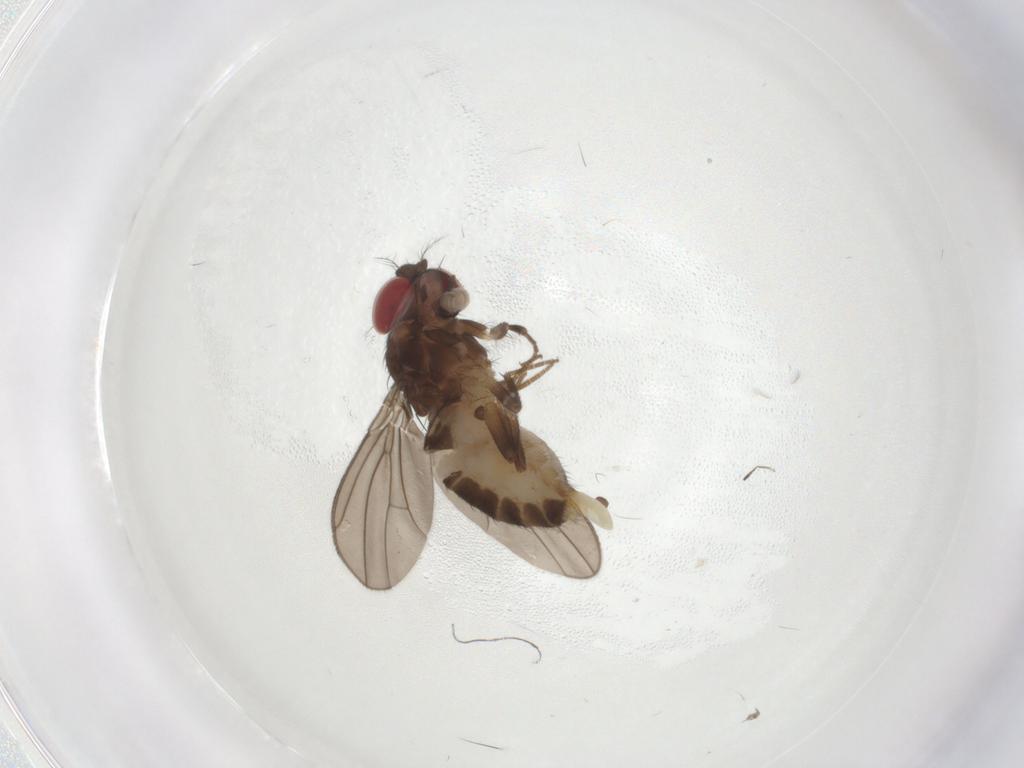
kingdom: Animalia
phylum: Arthropoda
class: Insecta
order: Diptera
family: Drosophilidae
